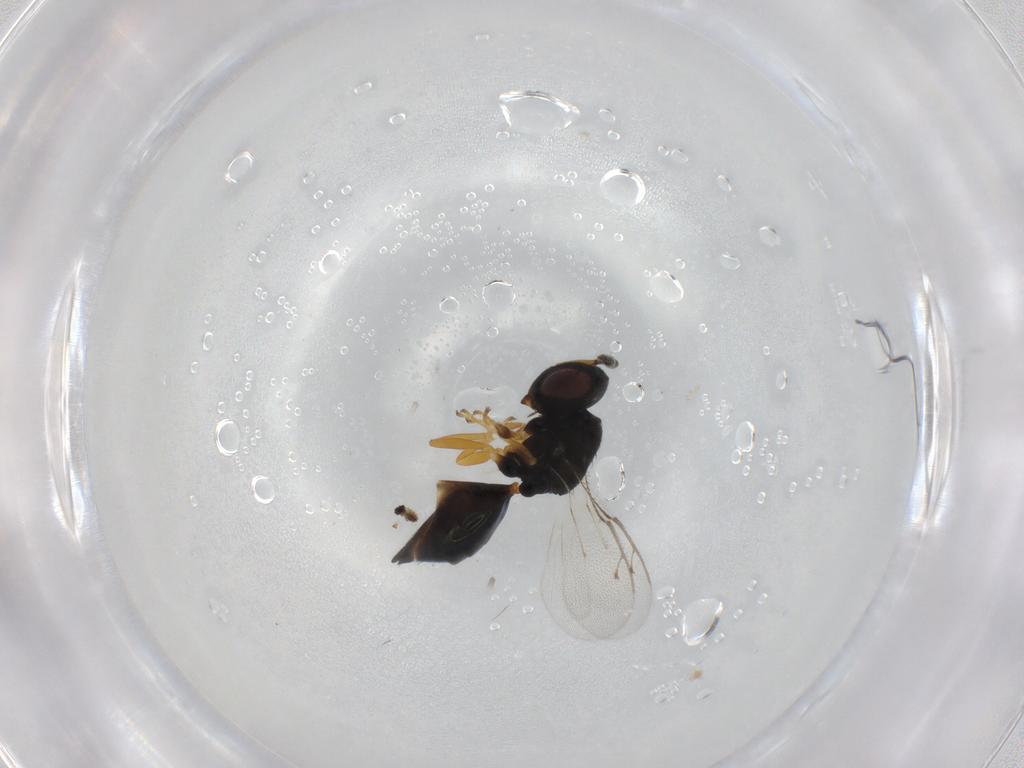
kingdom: Animalia
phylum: Arthropoda
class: Insecta
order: Hymenoptera
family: Pteromalidae
